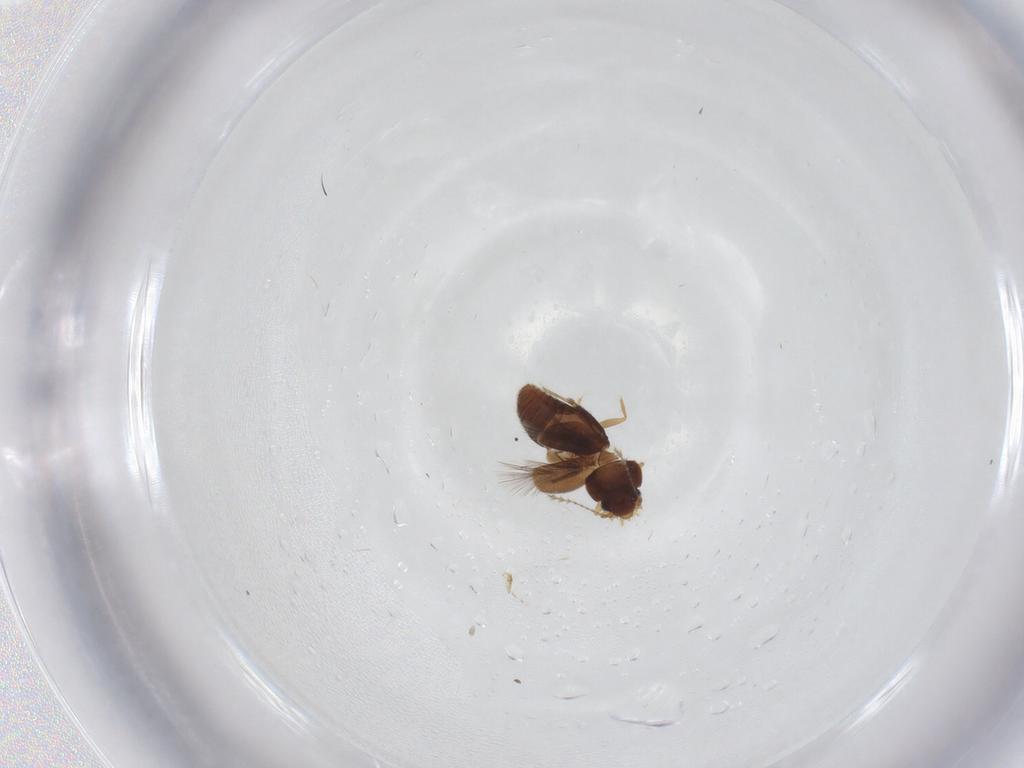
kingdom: Animalia
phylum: Arthropoda
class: Insecta
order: Coleoptera
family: Ptiliidae
